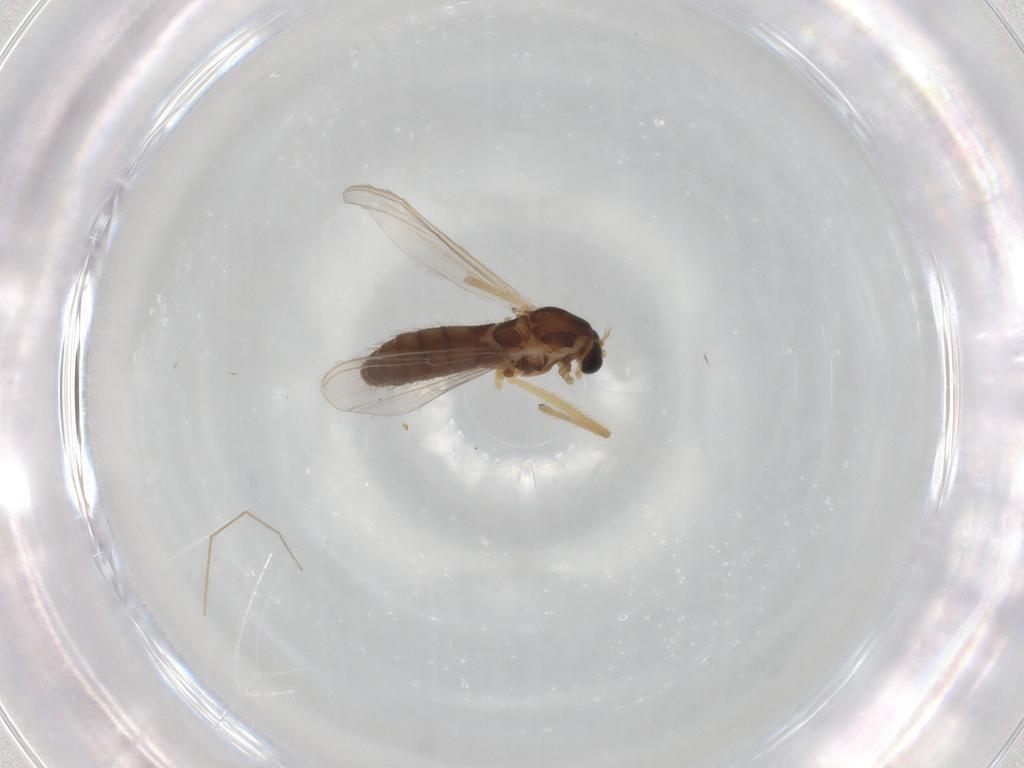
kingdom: Animalia
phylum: Arthropoda
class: Insecta
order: Diptera
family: Chironomidae
